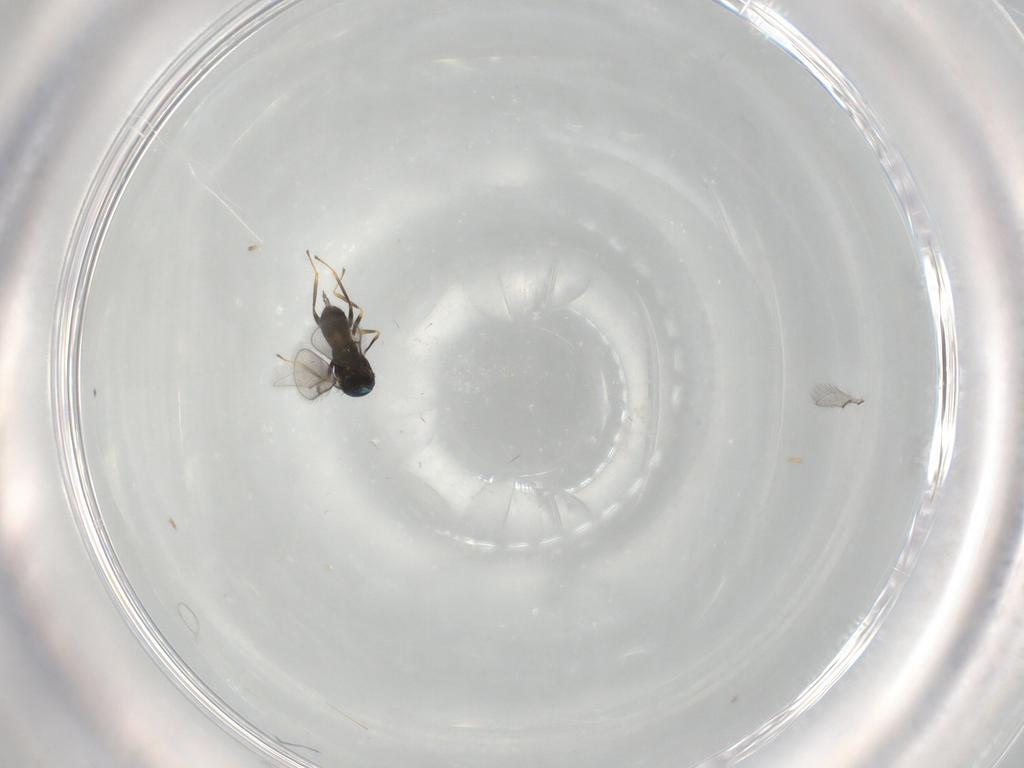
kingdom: Animalia
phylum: Arthropoda
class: Insecta
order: Hymenoptera
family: Eulophidae
